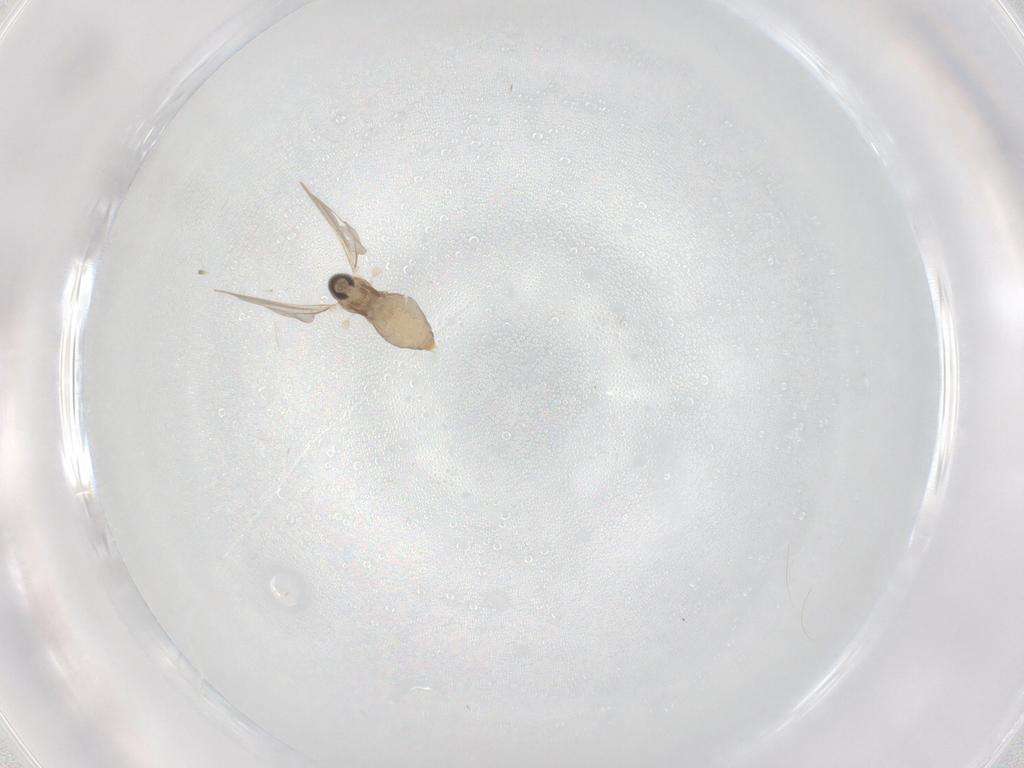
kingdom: Animalia
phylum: Arthropoda
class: Insecta
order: Diptera
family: Cecidomyiidae
